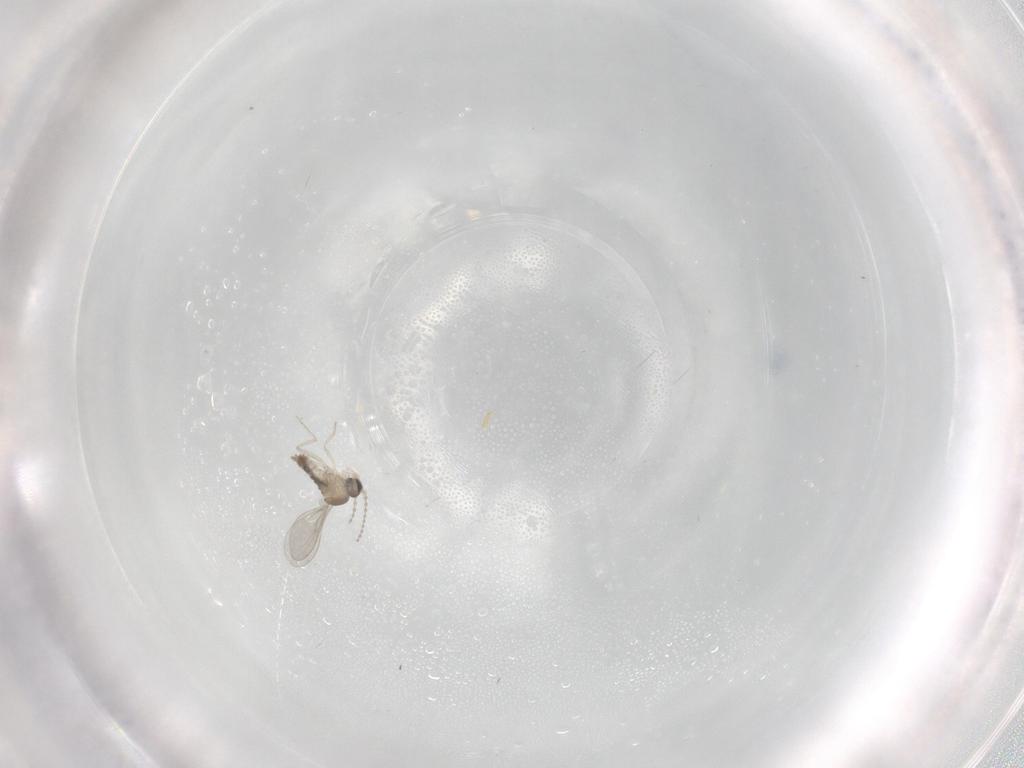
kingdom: Animalia
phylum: Arthropoda
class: Insecta
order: Diptera
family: Cecidomyiidae
